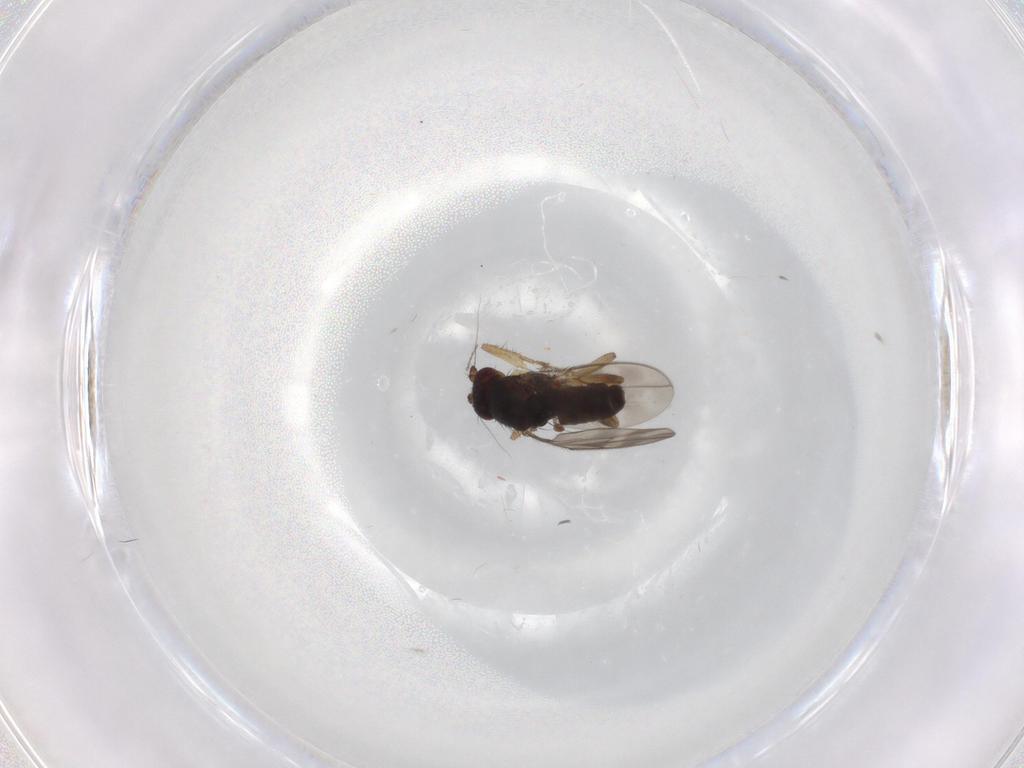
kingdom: Animalia
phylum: Arthropoda
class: Insecta
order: Diptera
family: Sphaeroceridae
